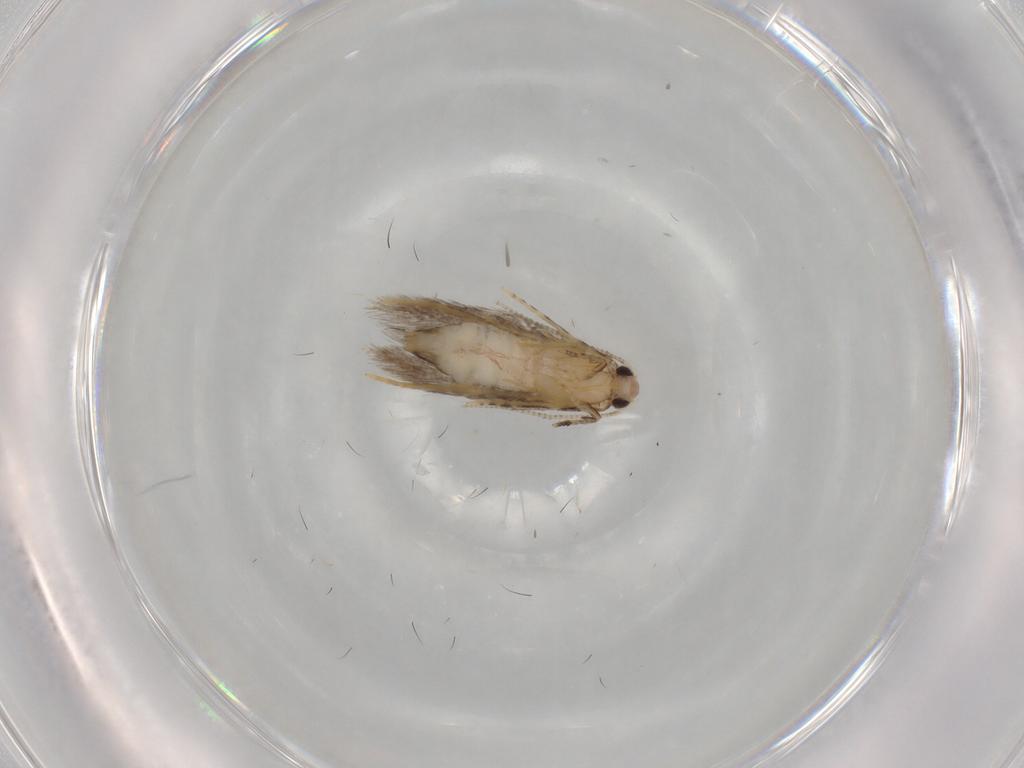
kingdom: Animalia
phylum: Arthropoda
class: Insecta
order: Lepidoptera
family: Tineidae
